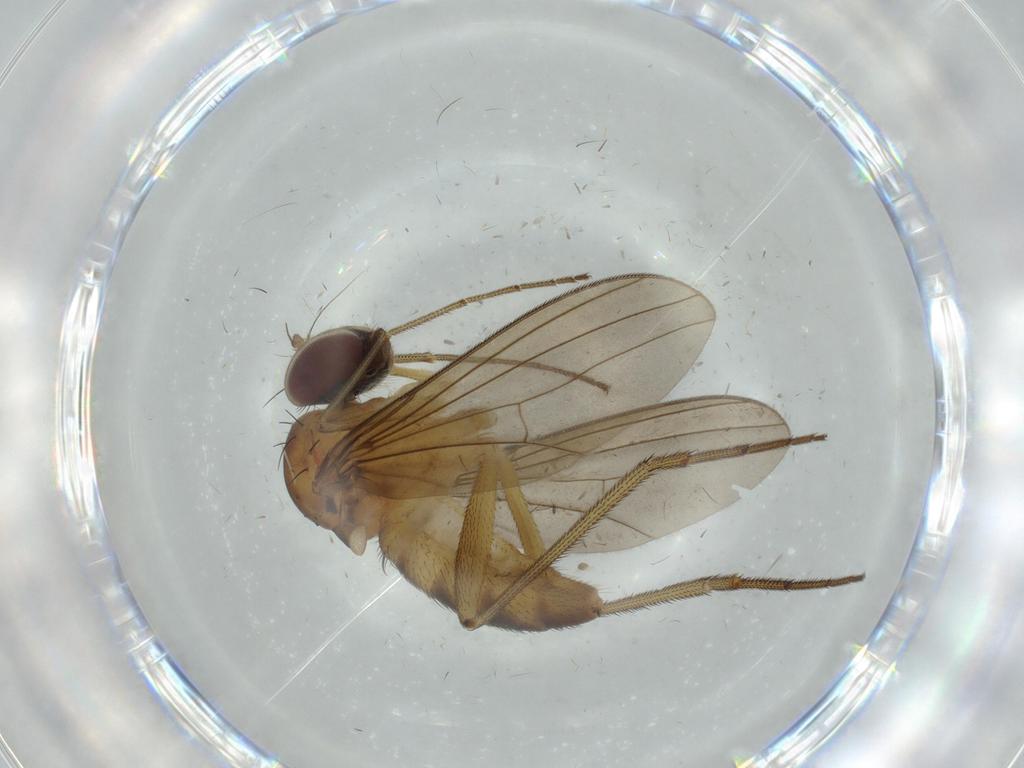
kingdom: Animalia
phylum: Arthropoda
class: Insecta
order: Diptera
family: Cecidomyiidae
